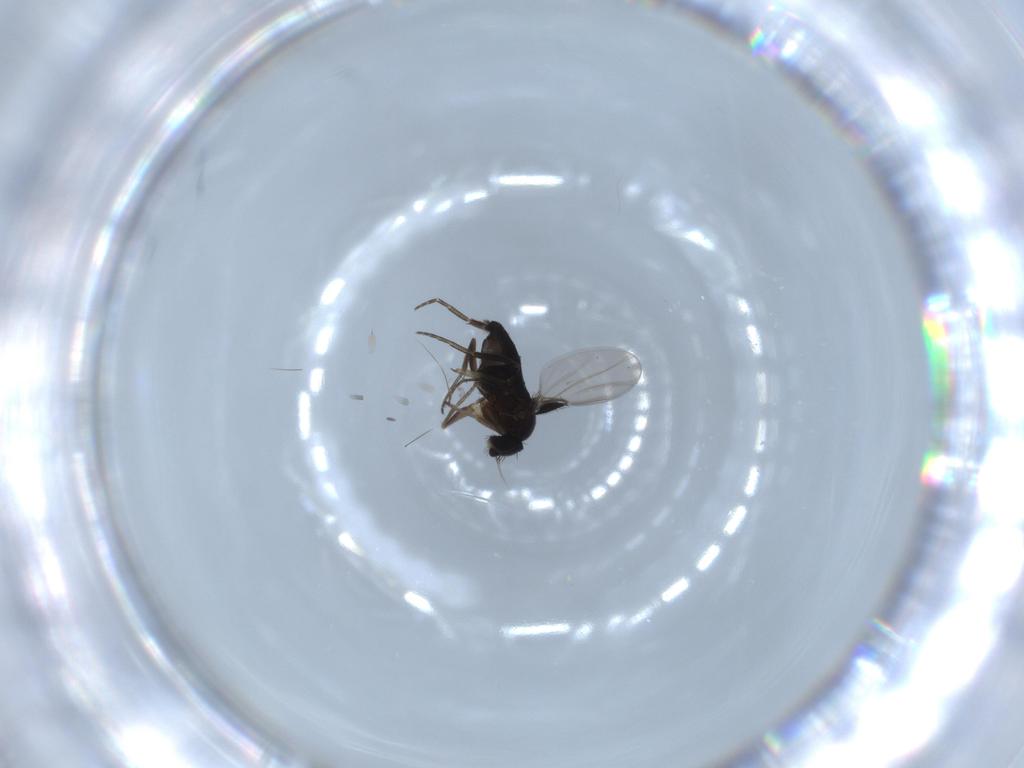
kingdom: Animalia
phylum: Arthropoda
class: Insecta
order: Diptera
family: Phoridae
